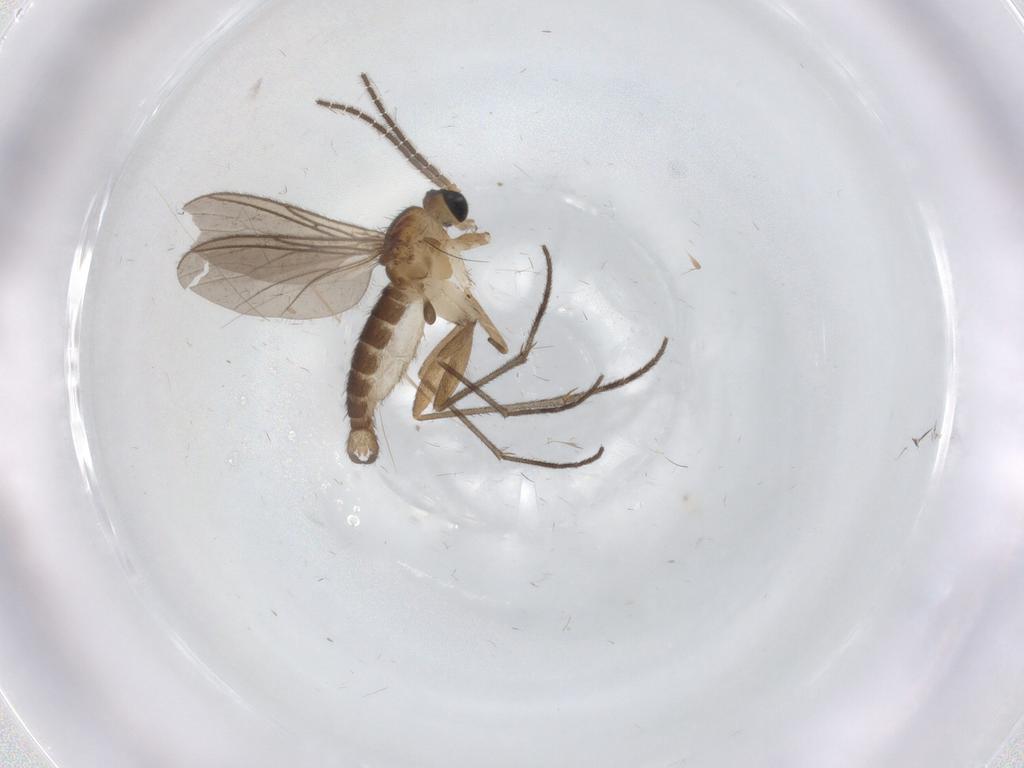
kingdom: Animalia
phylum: Arthropoda
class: Insecta
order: Diptera
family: Sciaridae
